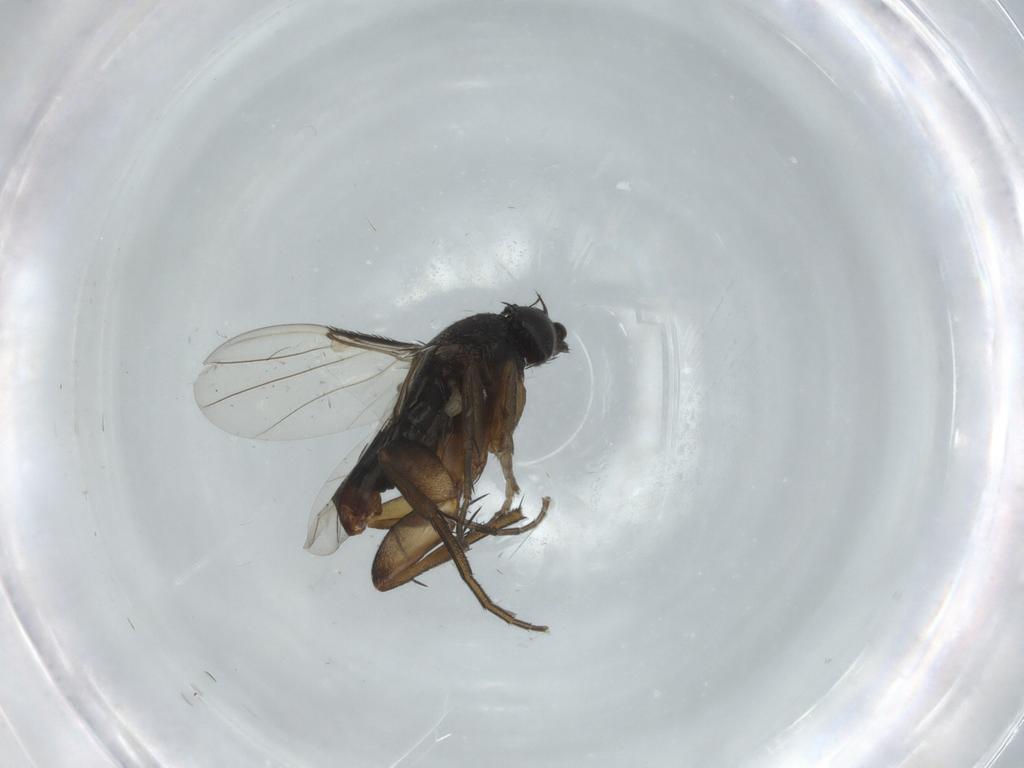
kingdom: Animalia
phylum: Arthropoda
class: Insecta
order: Diptera
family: Phoridae
